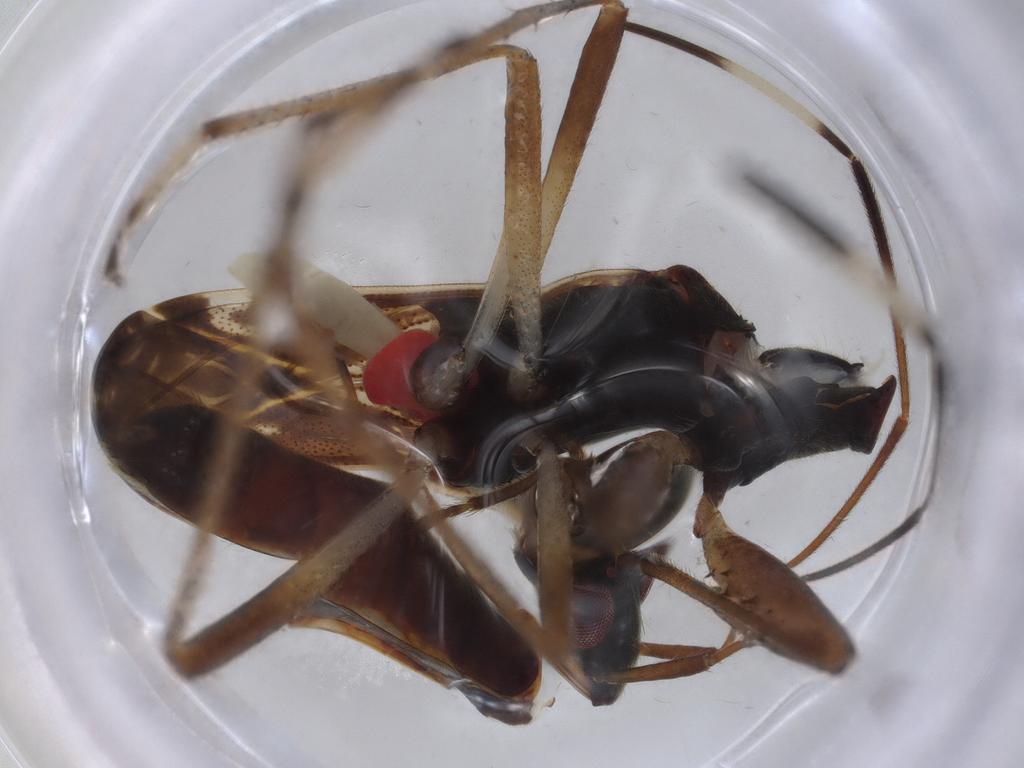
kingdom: Animalia
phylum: Arthropoda
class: Insecta
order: Hemiptera
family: Rhyparochromidae
